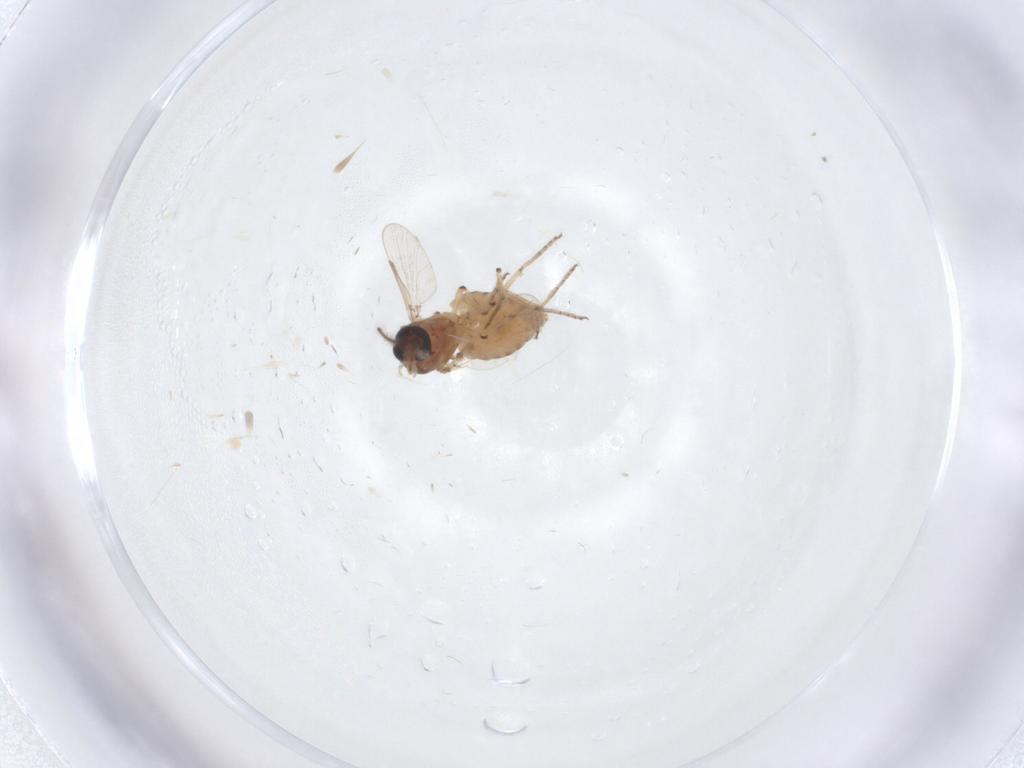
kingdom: Animalia
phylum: Arthropoda
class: Insecta
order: Diptera
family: Ceratopogonidae
